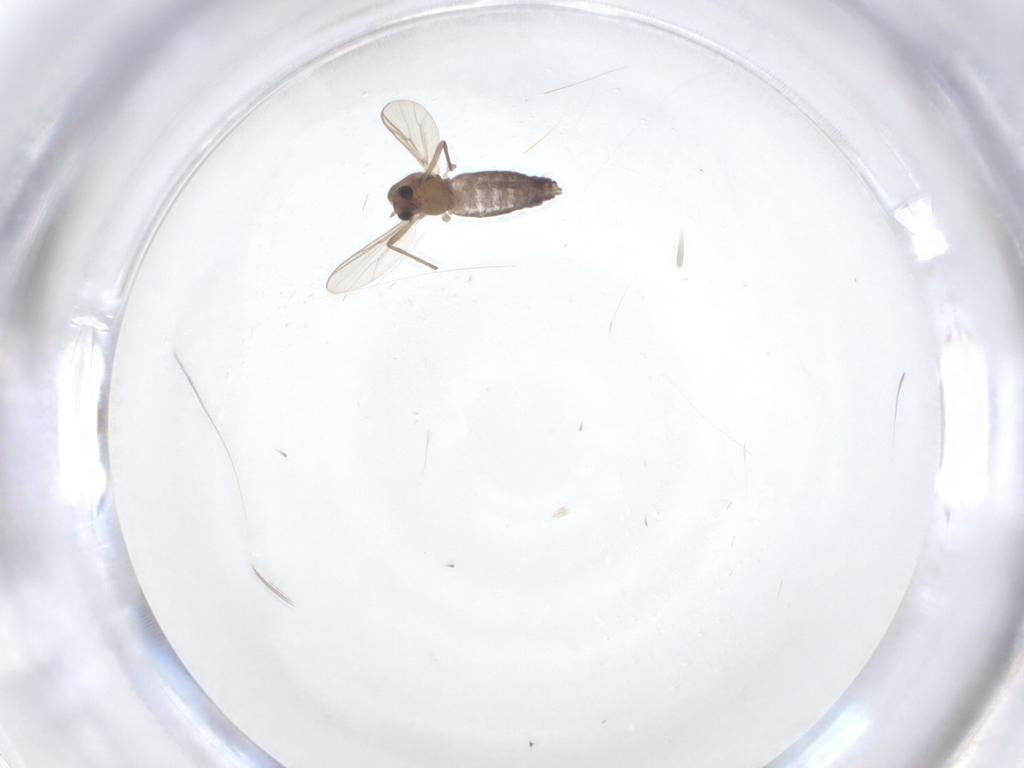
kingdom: Animalia
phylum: Arthropoda
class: Insecta
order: Diptera
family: Chironomidae
